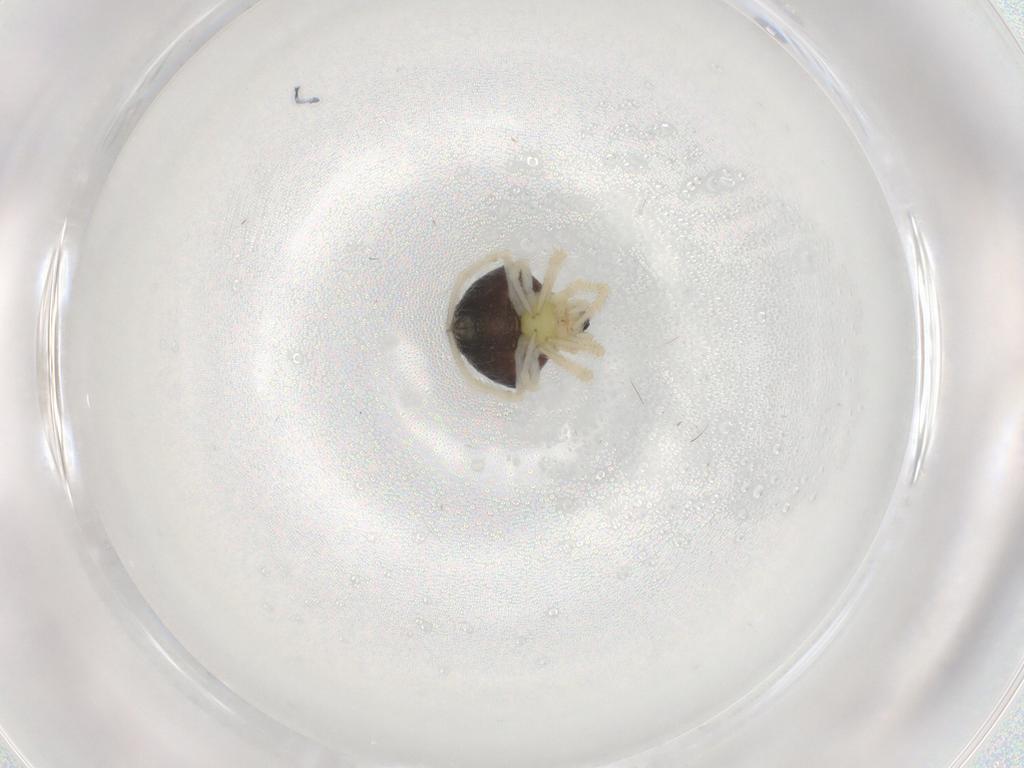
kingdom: Animalia
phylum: Arthropoda
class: Arachnida
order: Araneae
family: Theridiidae
